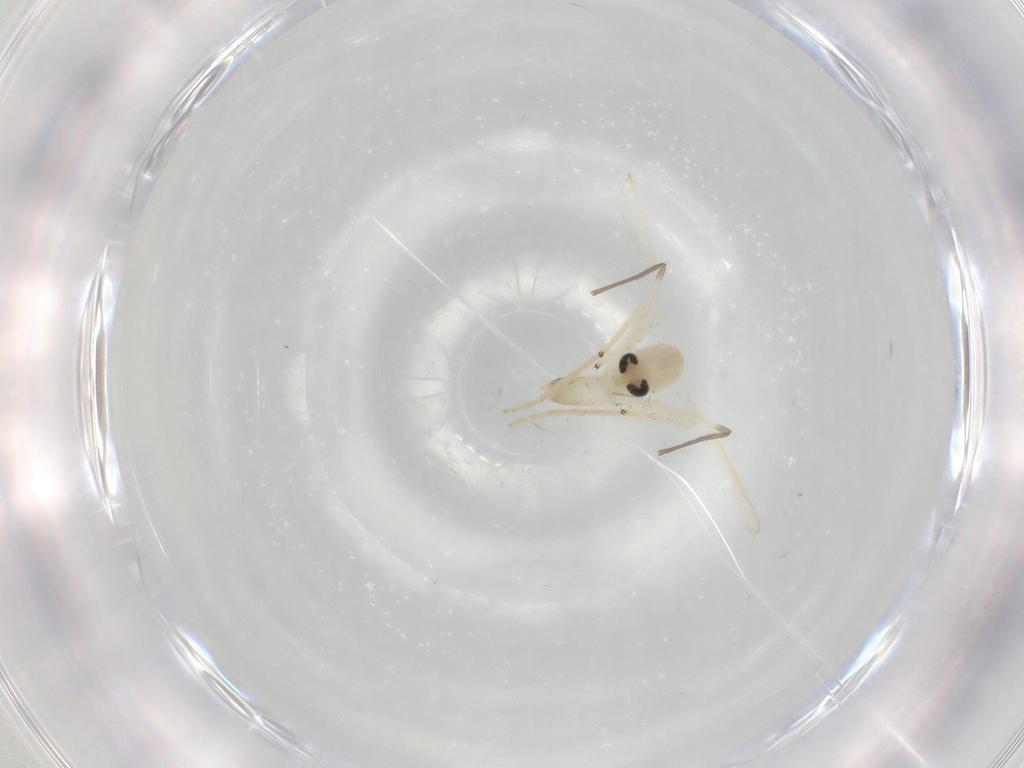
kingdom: Animalia
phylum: Arthropoda
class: Insecta
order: Diptera
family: Chironomidae
